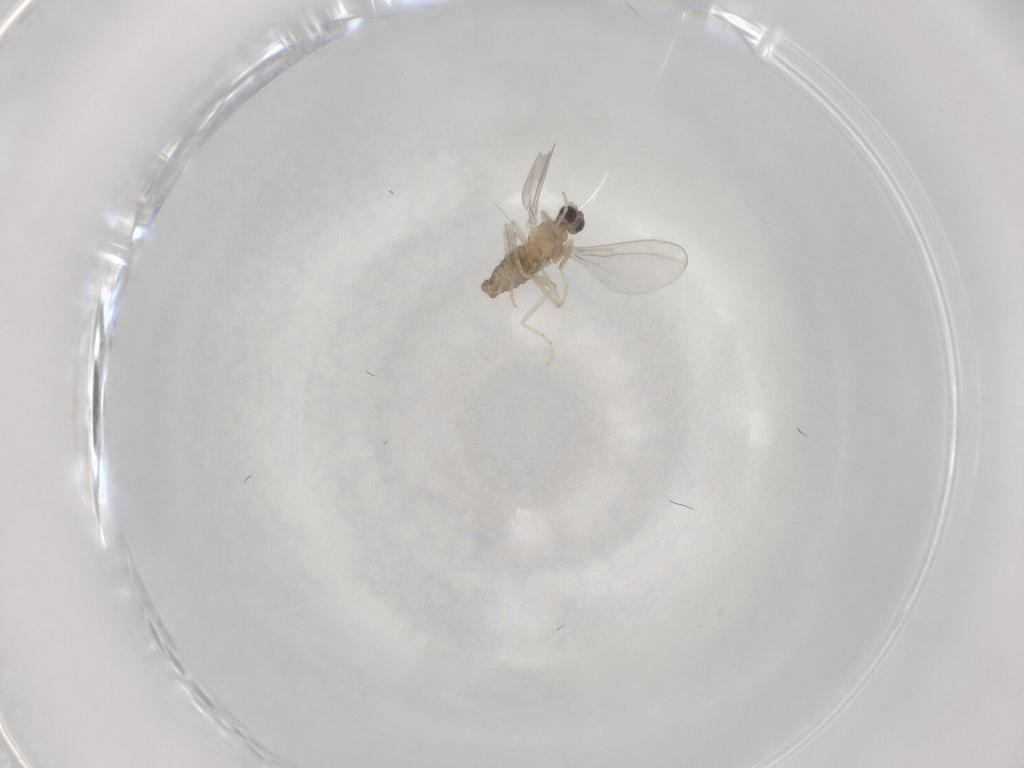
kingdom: Animalia
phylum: Arthropoda
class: Insecta
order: Diptera
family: Cecidomyiidae
